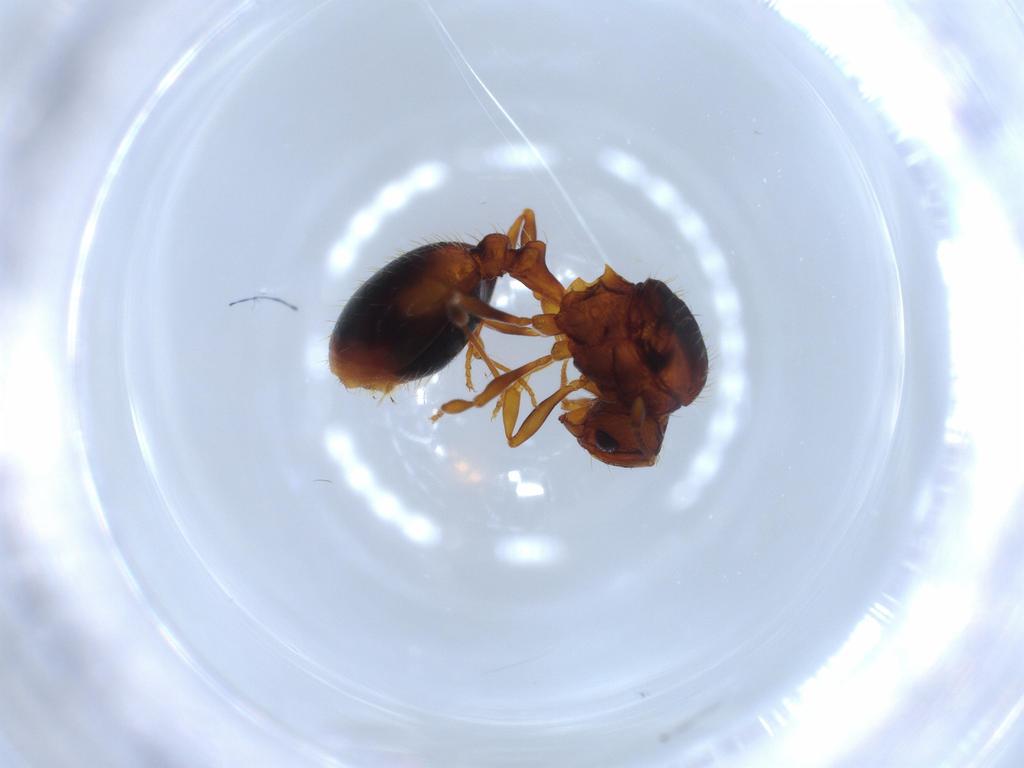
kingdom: Animalia
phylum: Arthropoda
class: Insecta
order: Hymenoptera
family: Formicidae
